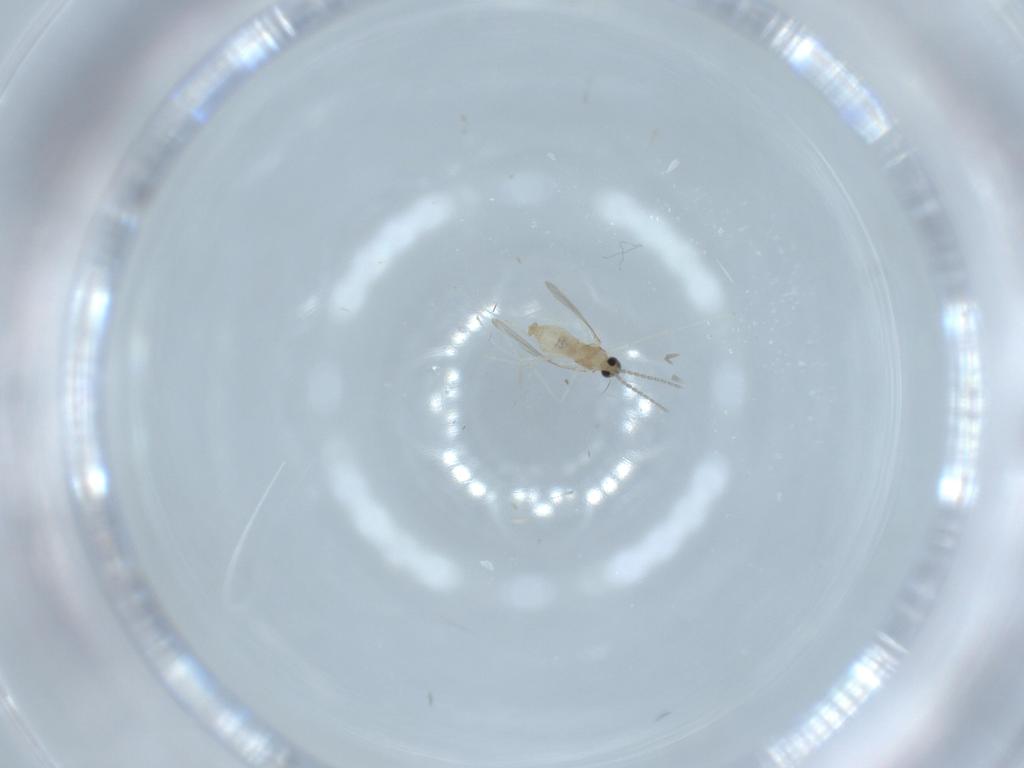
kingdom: Animalia
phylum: Arthropoda
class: Insecta
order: Diptera
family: Cecidomyiidae
